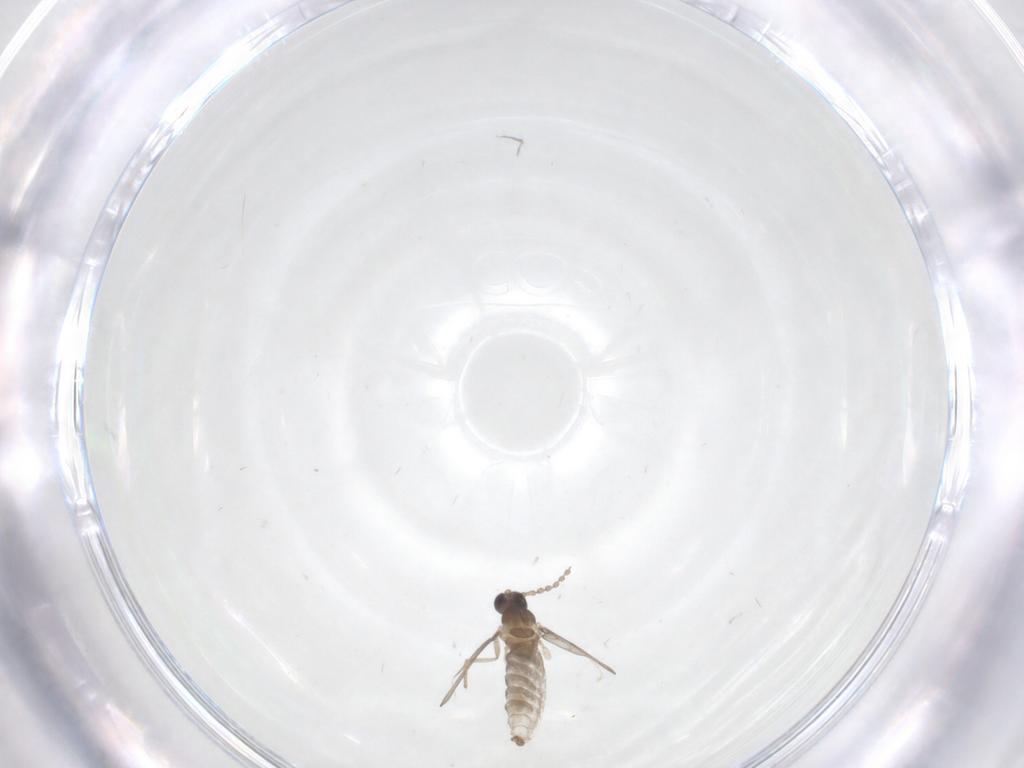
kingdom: Animalia
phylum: Arthropoda
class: Insecta
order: Diptera
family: Cecidomyiidae
